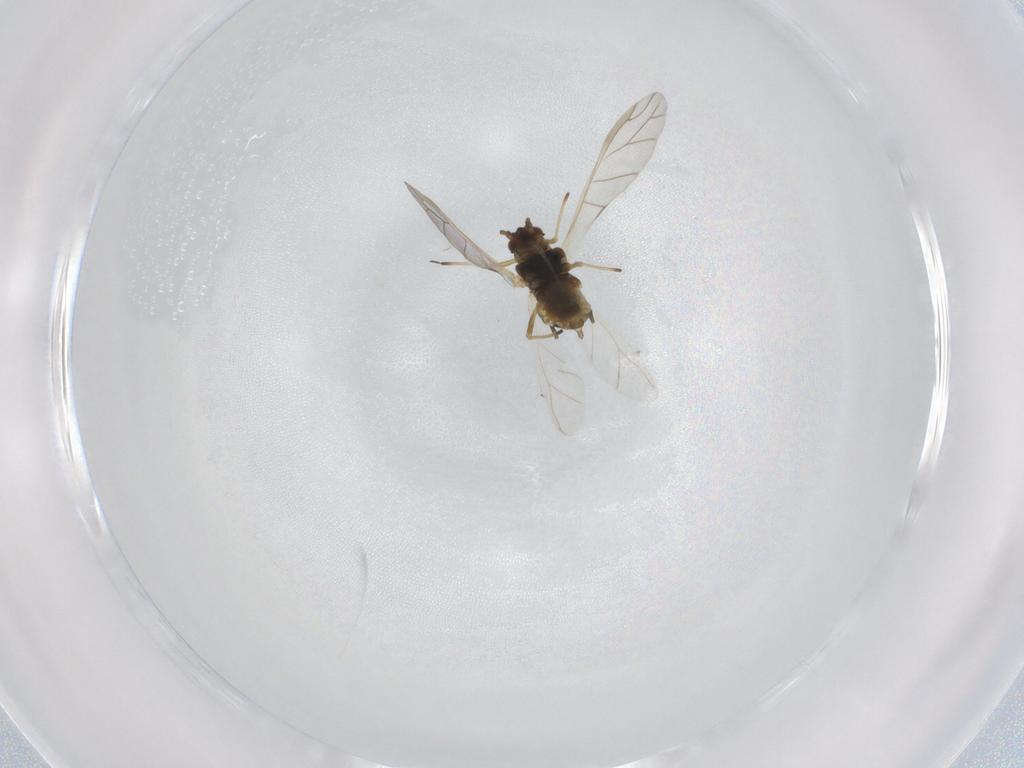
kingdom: Animalia
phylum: Arthropoda
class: Insecta
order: Hemiptera
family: Aphididae
